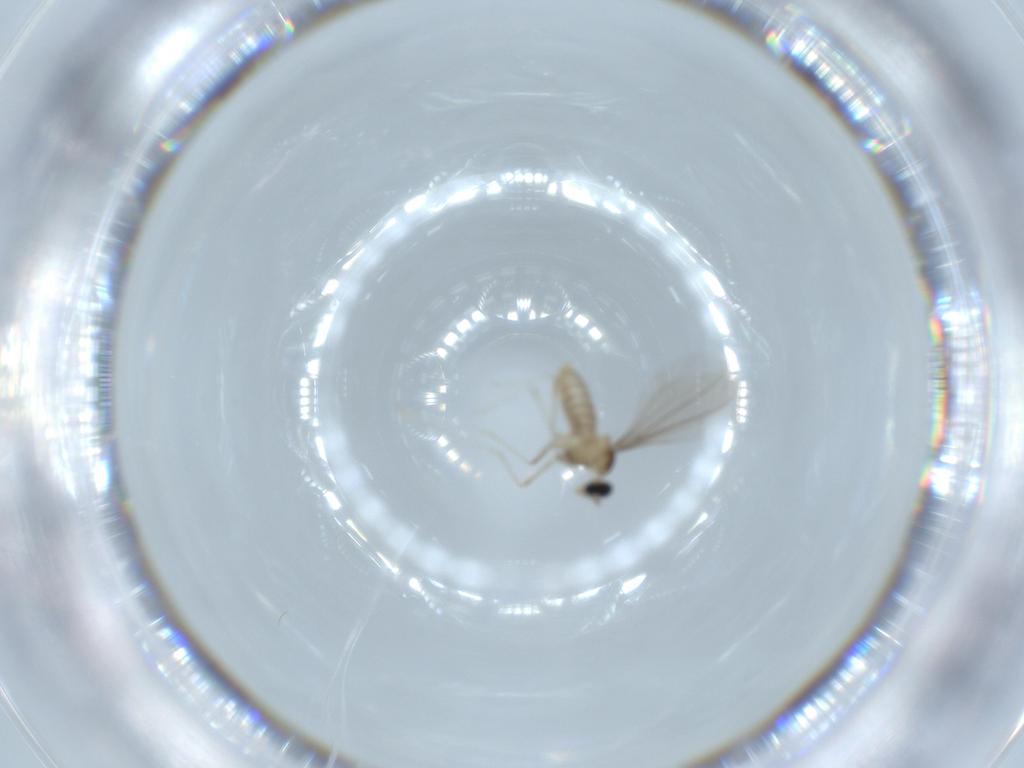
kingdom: Animalia
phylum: Arthropoda
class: Insecta
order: Diptera
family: Cecidomyiidae
